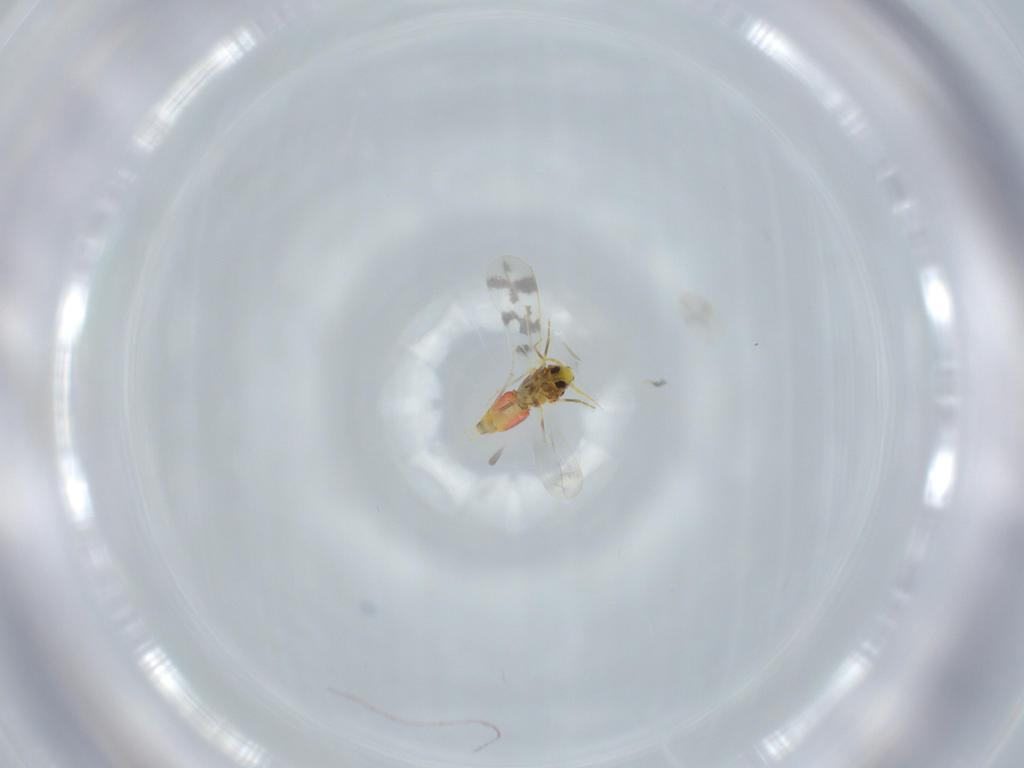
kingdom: Animalia
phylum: Arthropoda
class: Insecta
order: Hemiptera
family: Aleyrodidae
